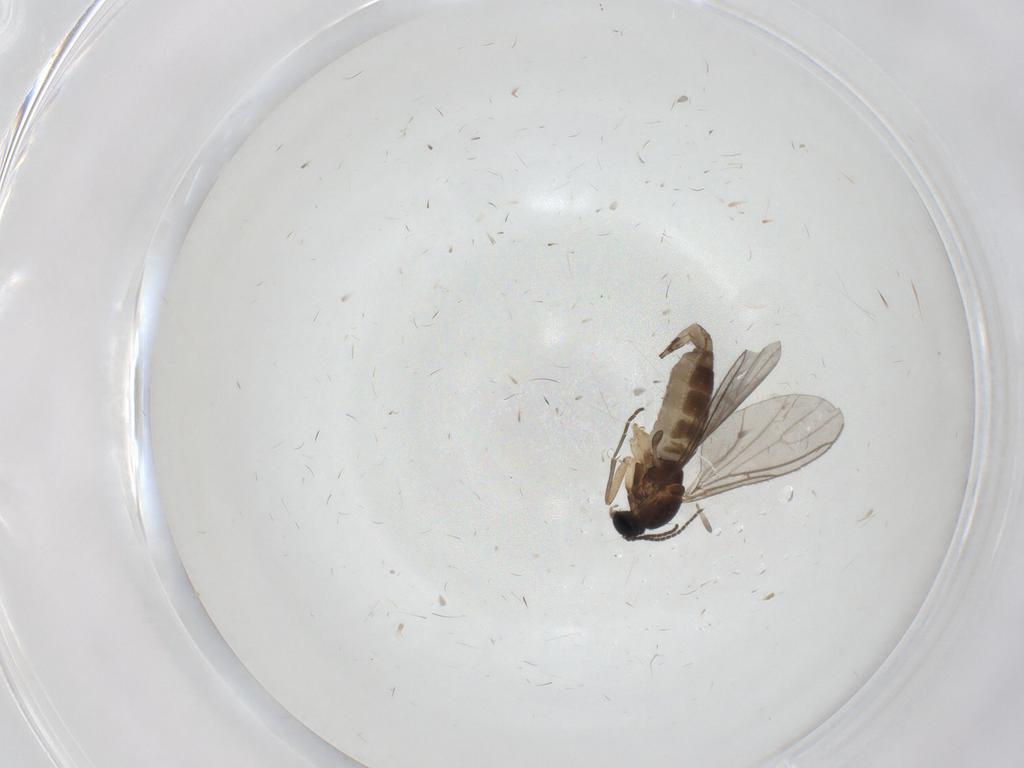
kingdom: Animalia
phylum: Arthropoda
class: Insecta
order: Diptera
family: Sciaridae
